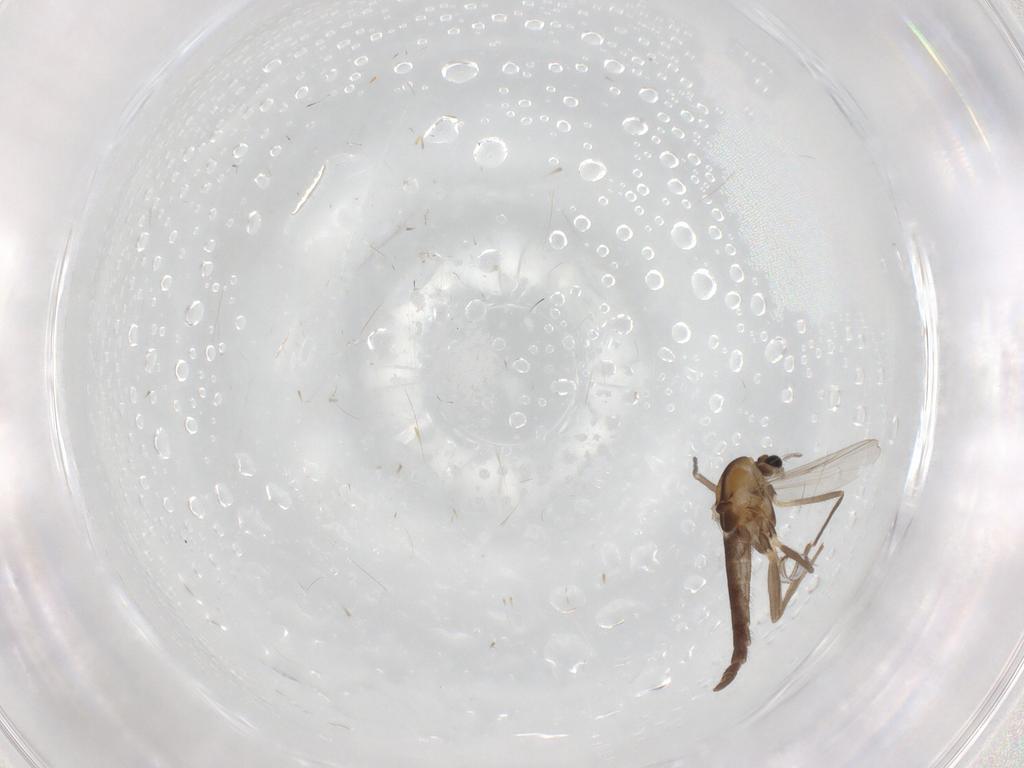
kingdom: Animalia
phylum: Arthropoda
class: Insecta
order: Diptera
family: Chironomidae
